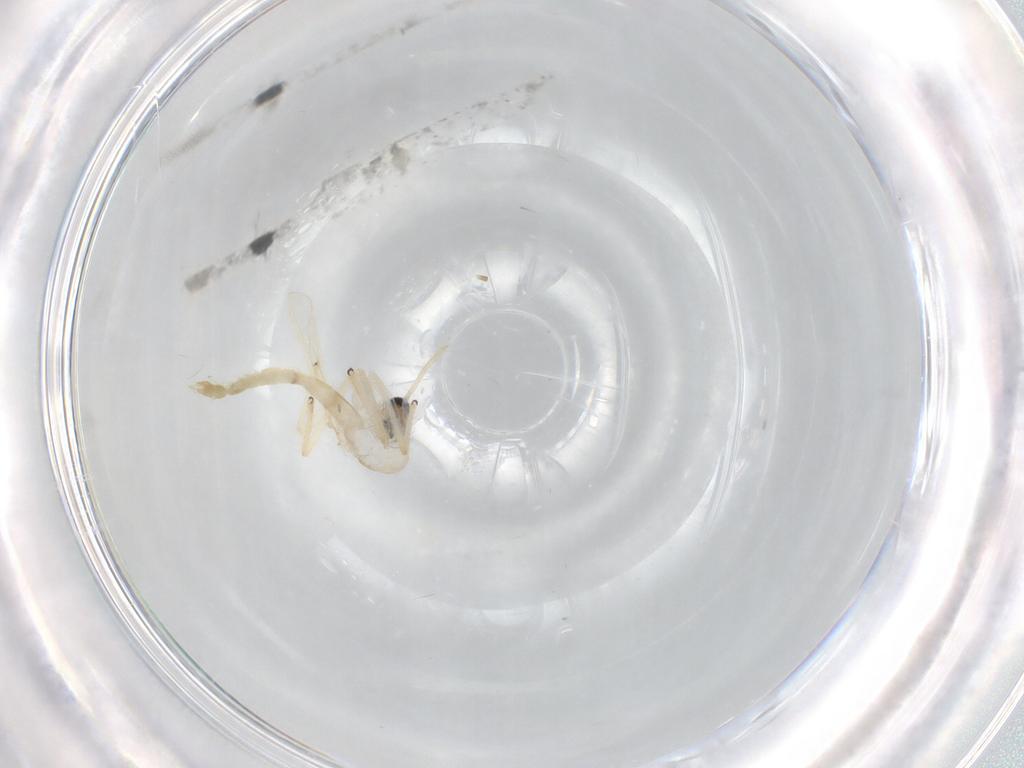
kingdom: Animalia
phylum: Arthropoda
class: Insecta
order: Diptera
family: Chironomidae
